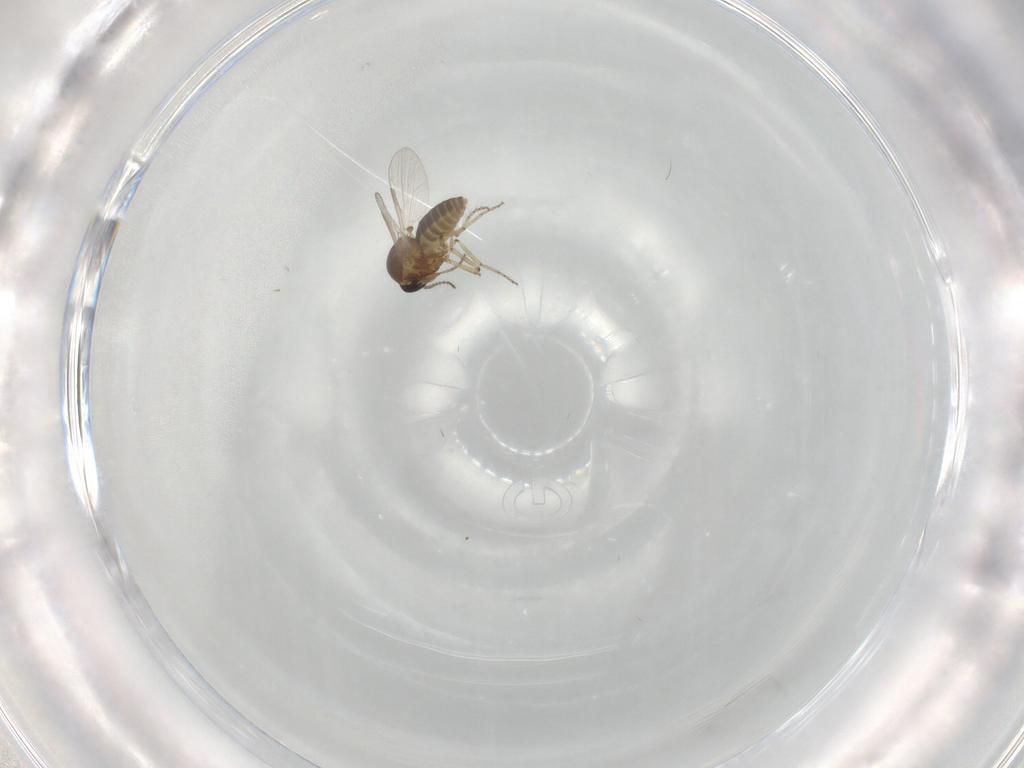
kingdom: Animalia
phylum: Arthropoda
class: Insecta
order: Diptera
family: Ceratopogonidae
